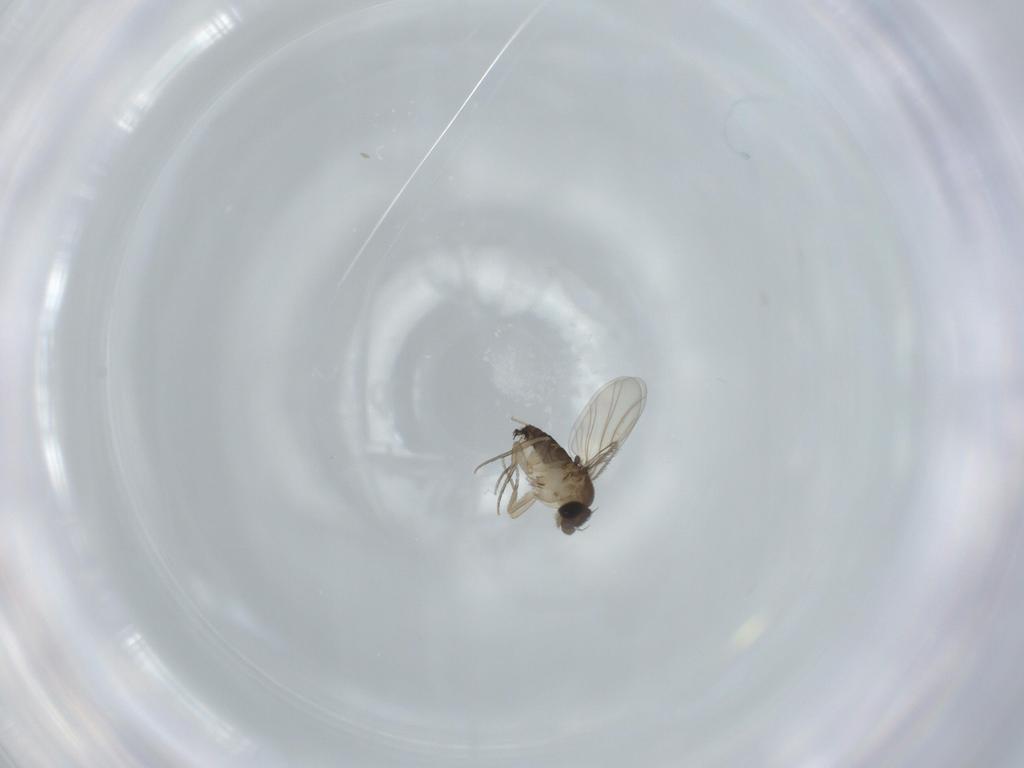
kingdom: Animalia
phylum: Arthropoda
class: Insecta
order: Diptera
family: Phoridae
